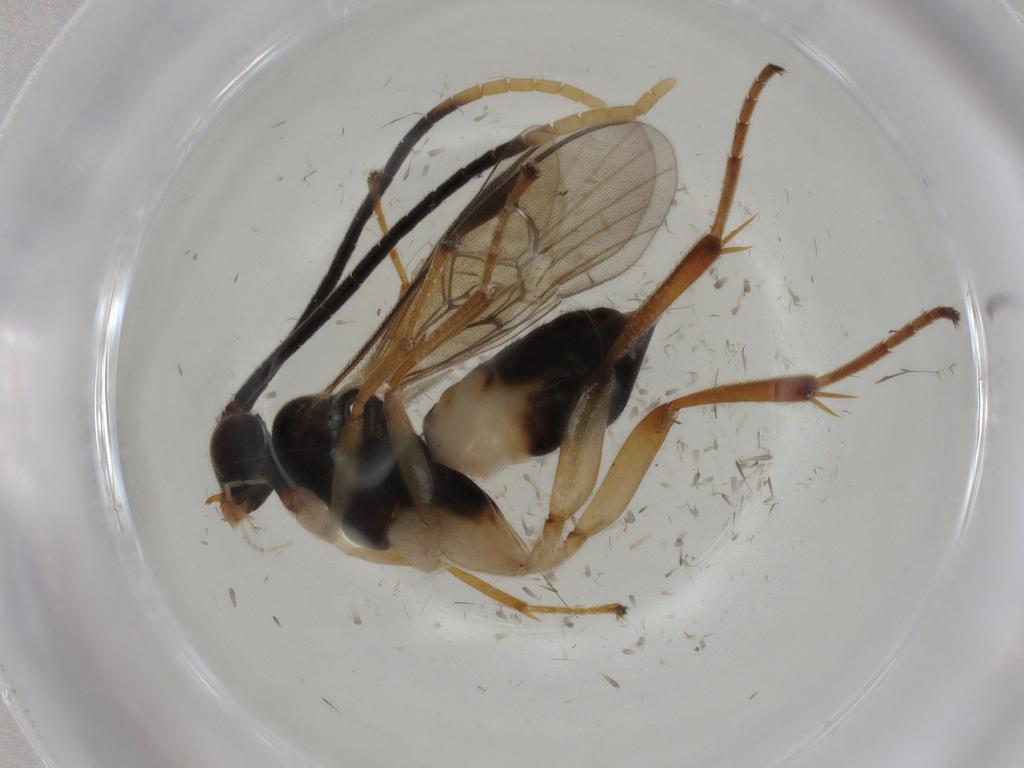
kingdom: Animalia
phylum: Arthropoda
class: Insecta
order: Hymenoptera
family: Braconidae
